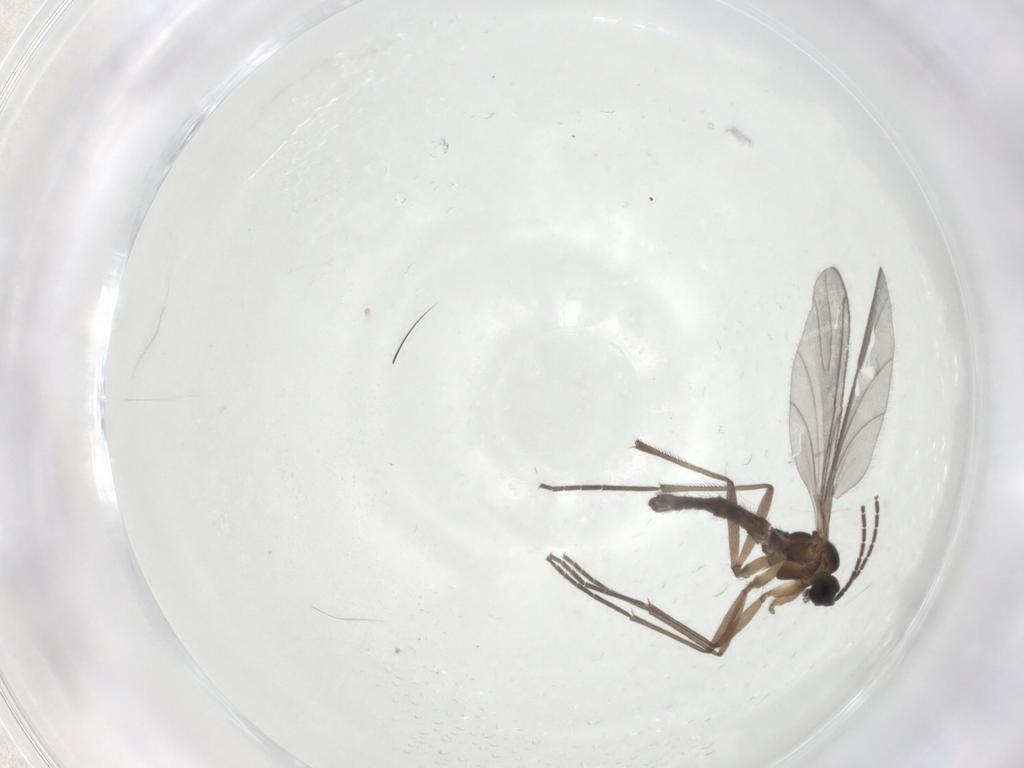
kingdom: Animalia
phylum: Arthropoda
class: Insecta
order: Diptera
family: Sciaridae
